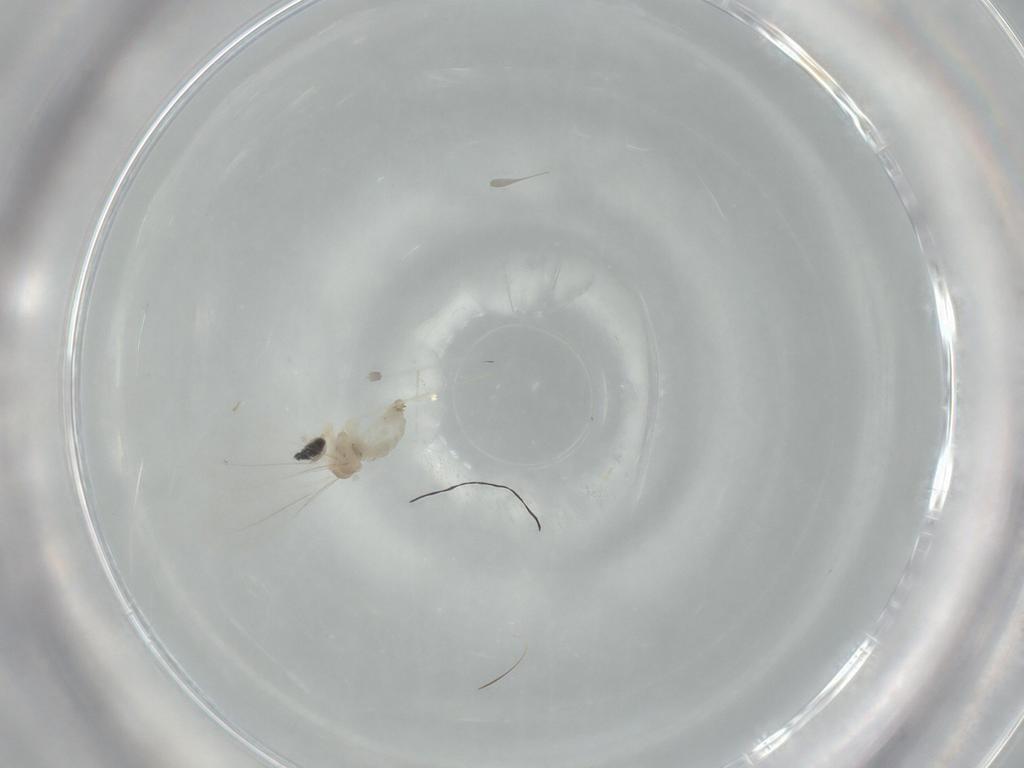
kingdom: Animalia
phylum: Arthropoda
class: Insecta
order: Diptera
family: Cecidomyiidae
